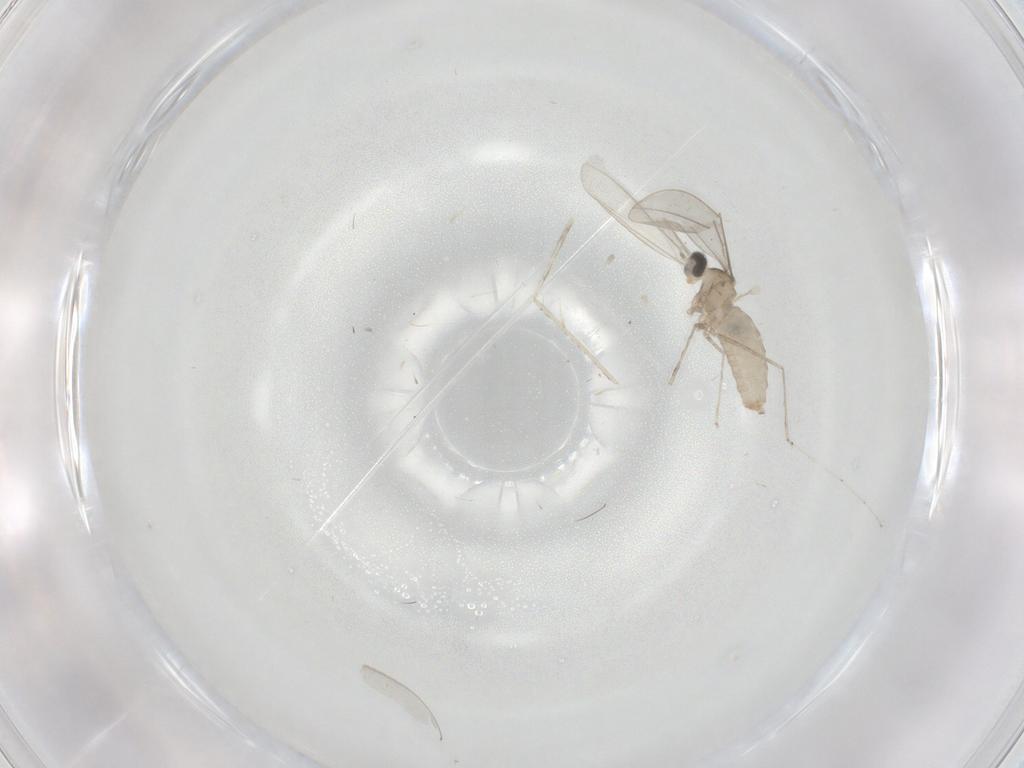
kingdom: Animalia
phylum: Arthropoda
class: Insecta
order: Diptera
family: Cecidomyiidae
